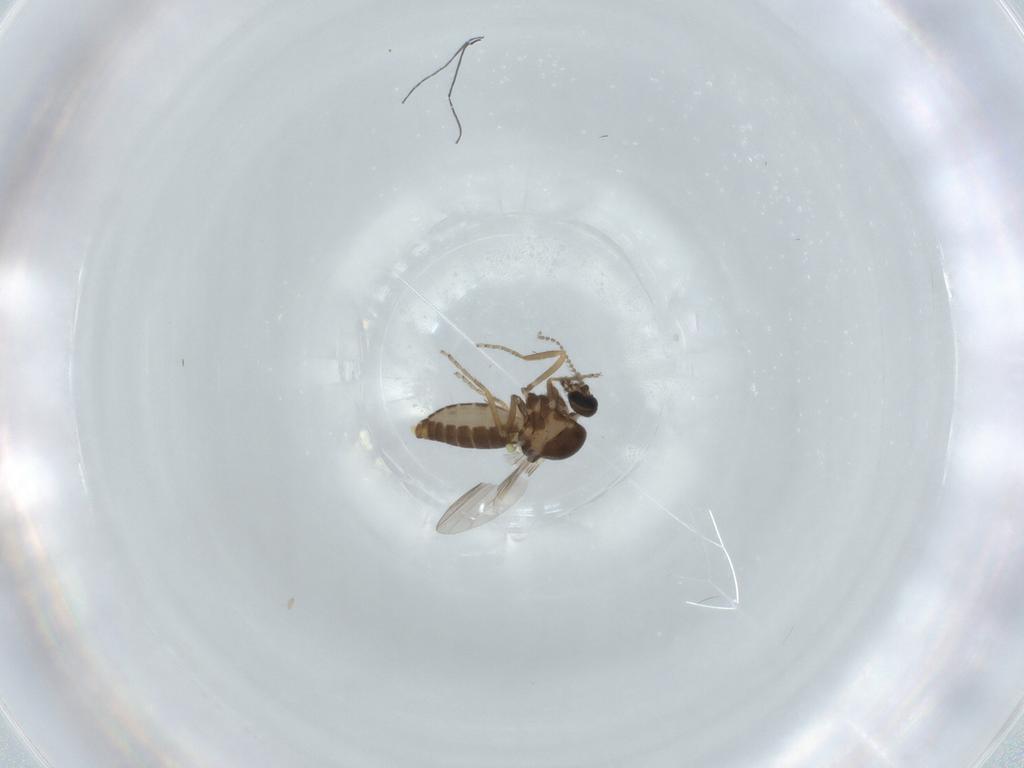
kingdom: Animalia
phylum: Arthropoda
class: Insecta
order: Diptera
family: Ceratopogonidae
